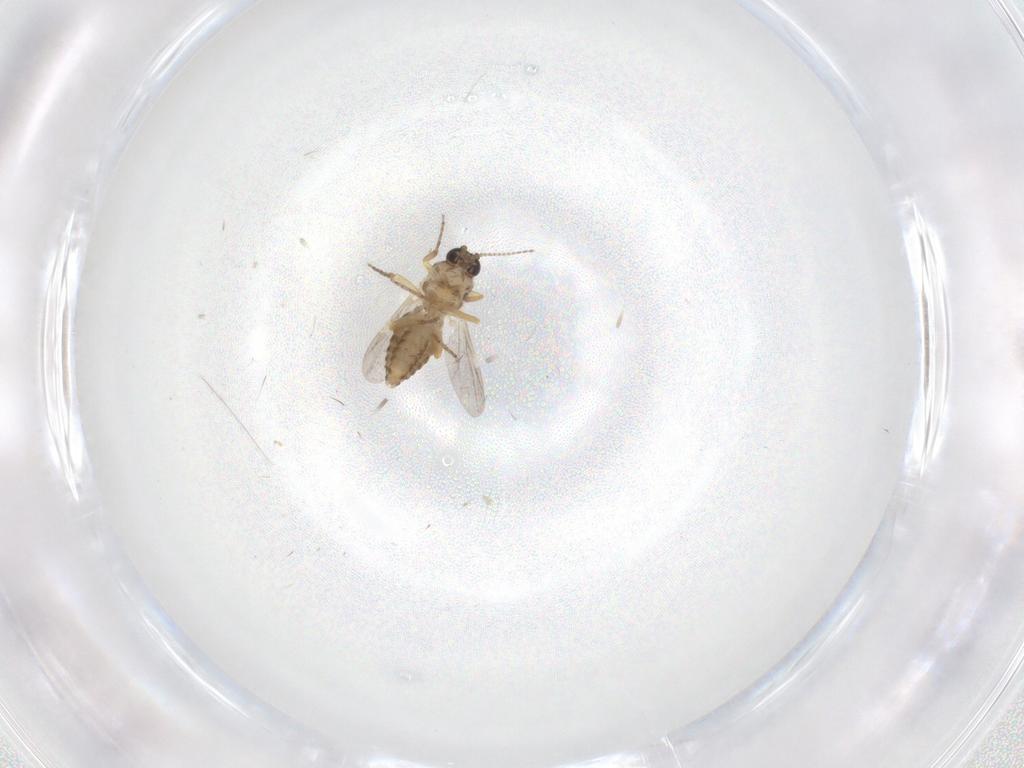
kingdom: Animalia
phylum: Arthropoda
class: Insecta
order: Diptera
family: Ceratopogonidae
